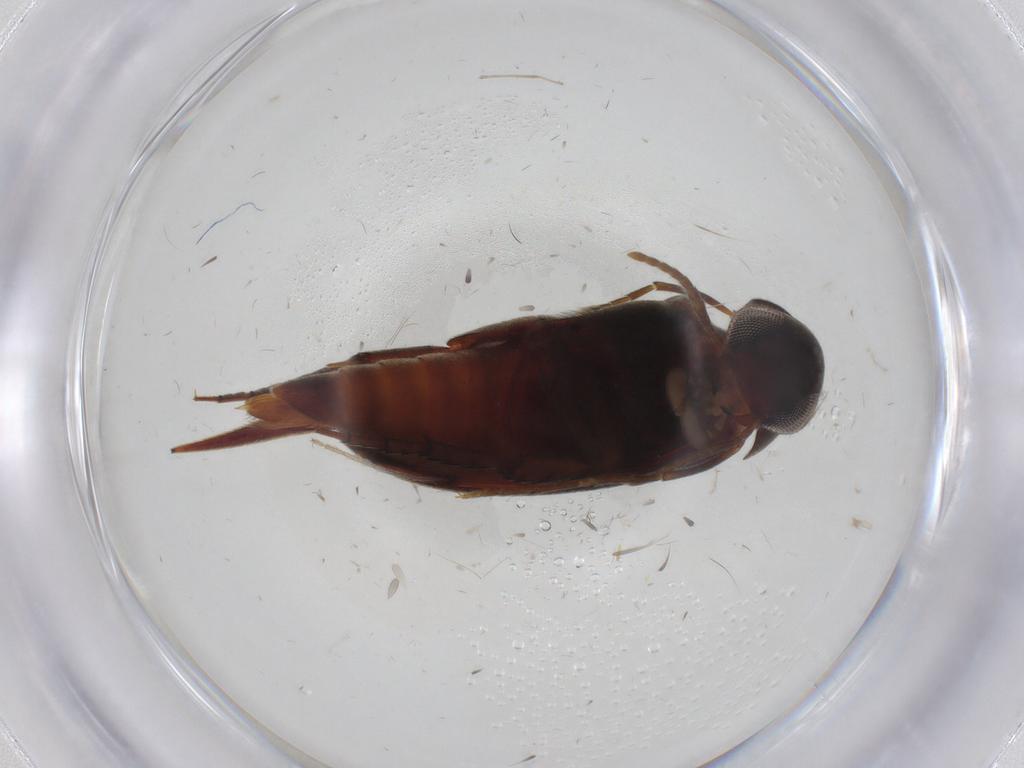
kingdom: Animalia
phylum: Arthropoda
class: Insecta
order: Coleoptera
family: Mordellidae
